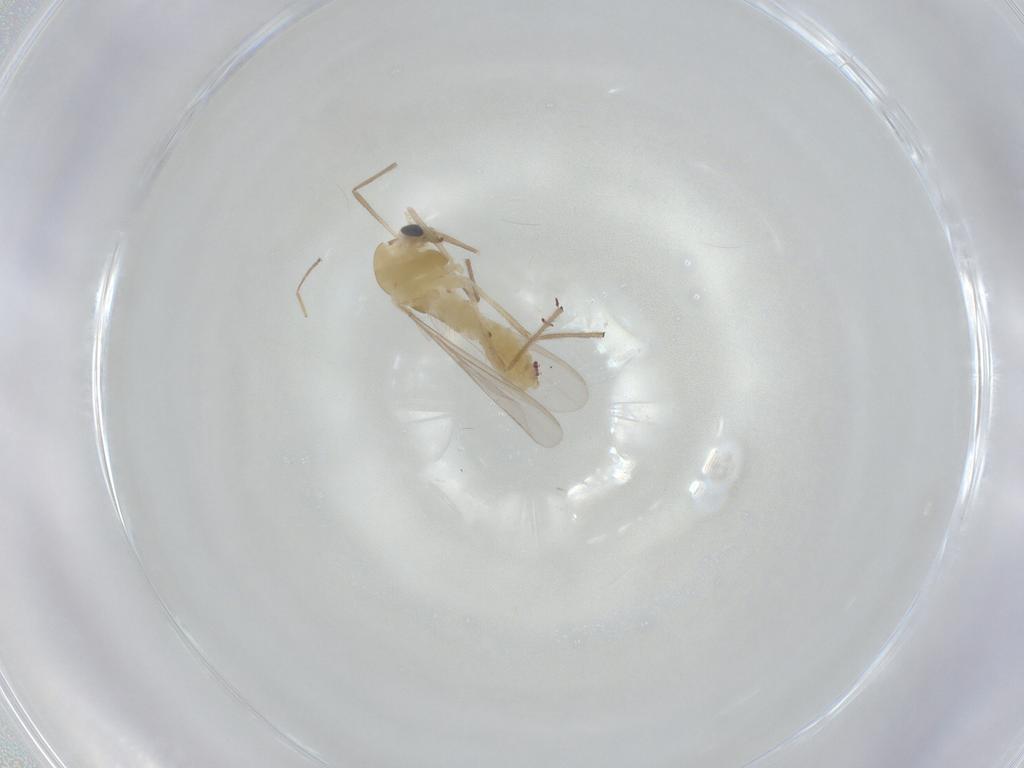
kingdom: Animalia
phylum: Arthropoda
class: Insecta
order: Diptera
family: Chironomidae
